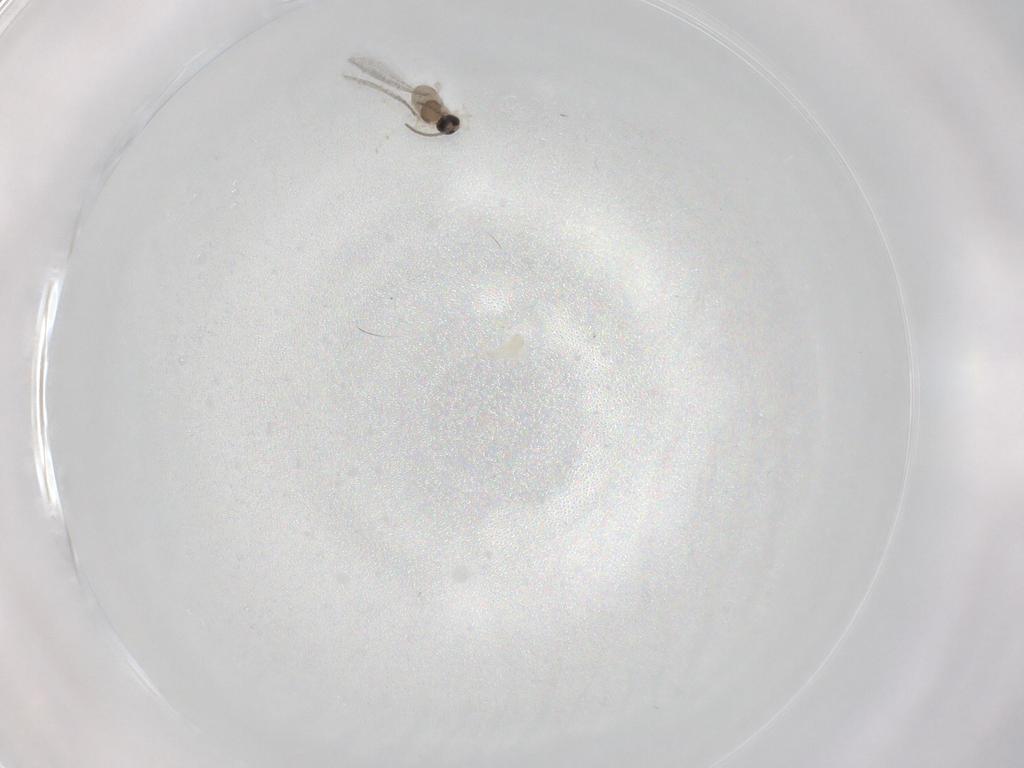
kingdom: Animalia
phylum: Arthropoda
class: Insecta
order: Diptera
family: Cecidomyiidae
